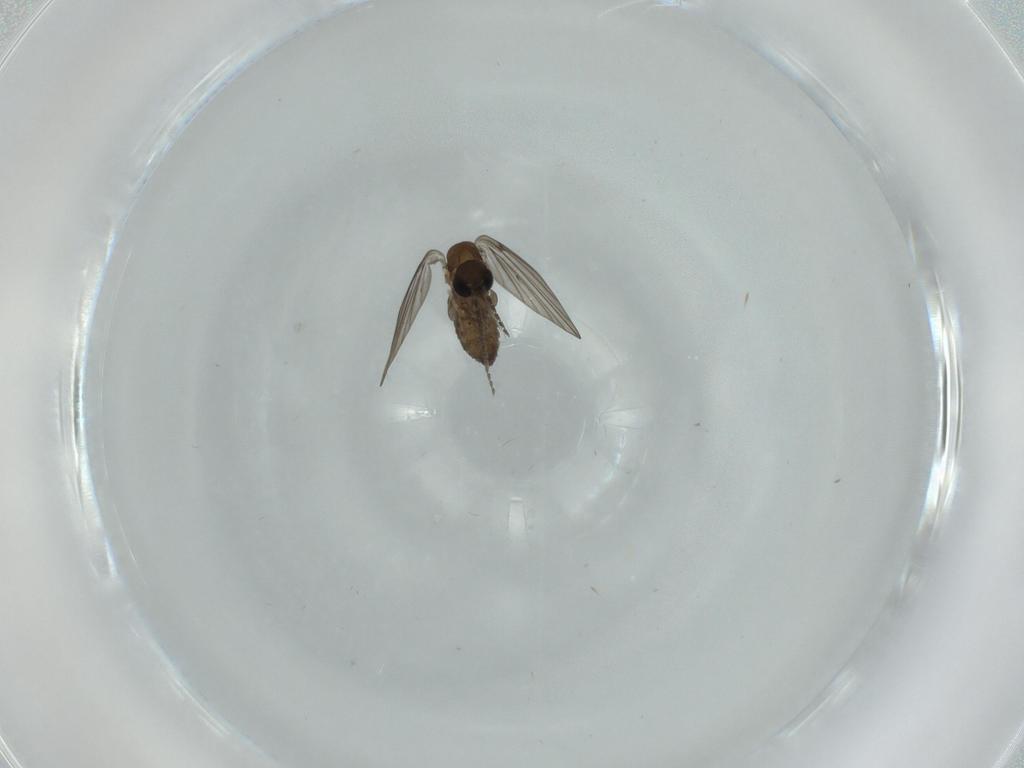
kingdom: Animalia
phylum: Arthropoda
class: Insecta
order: Diptera
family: Psychodidae
